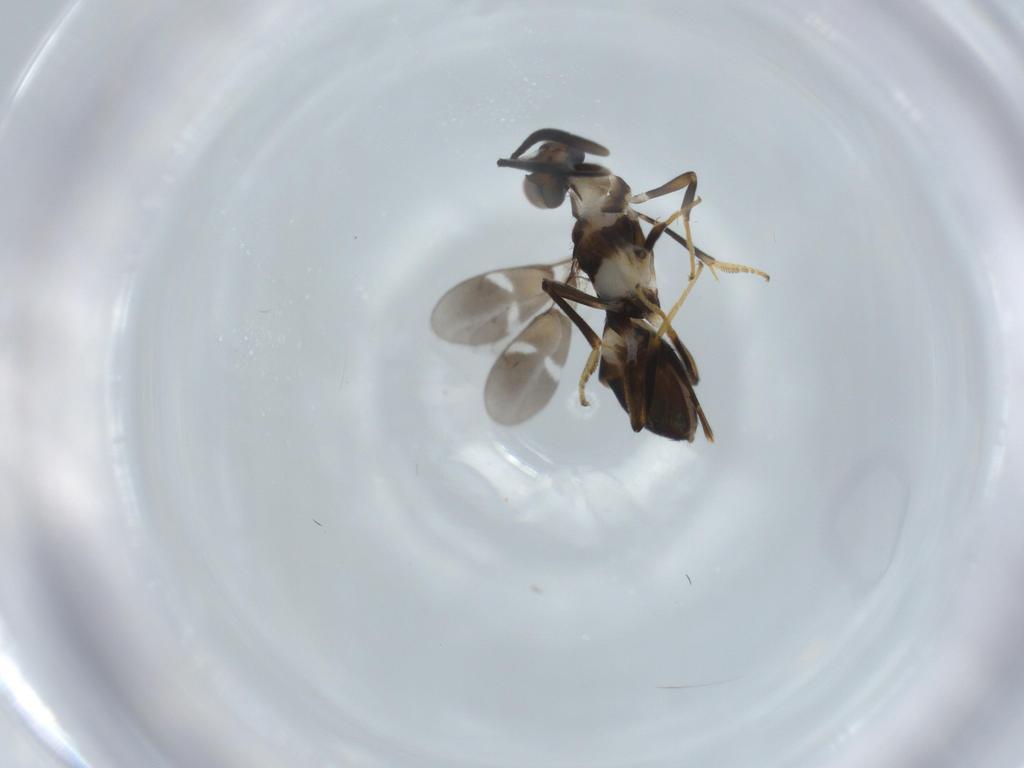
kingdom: Animalia
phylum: Arthropoda
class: Insecta
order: Hymenoptera
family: Eupelmidae
